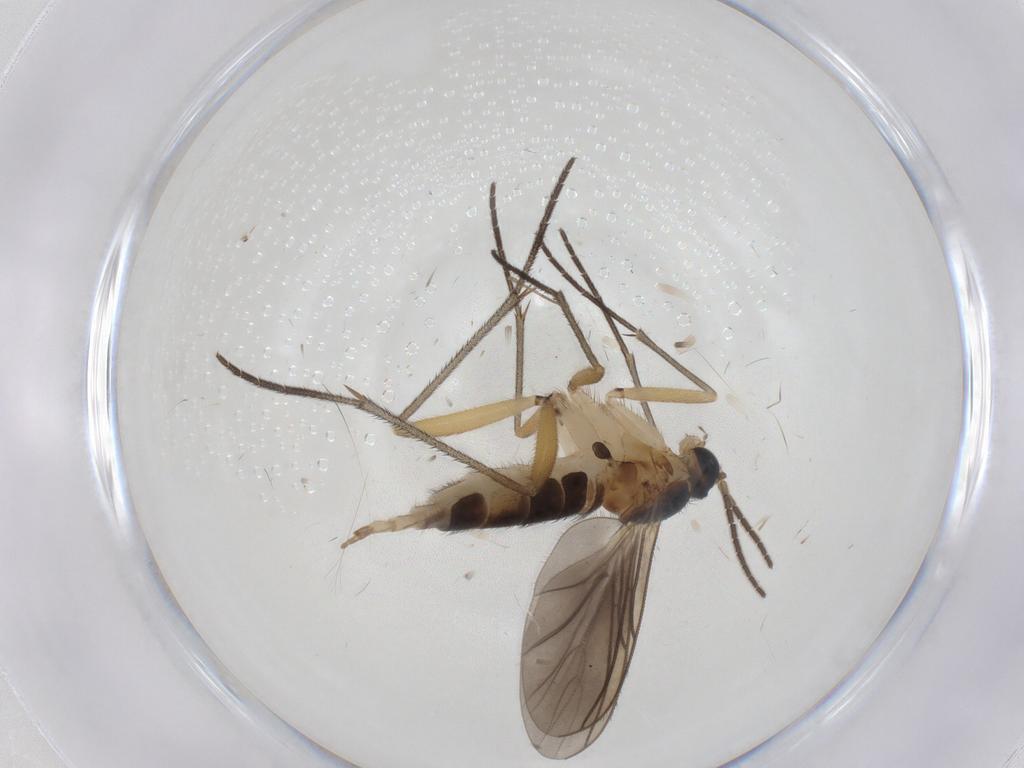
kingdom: Animalia
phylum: Arthropoda
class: Insecta
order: Diptera
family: Sciaridae
